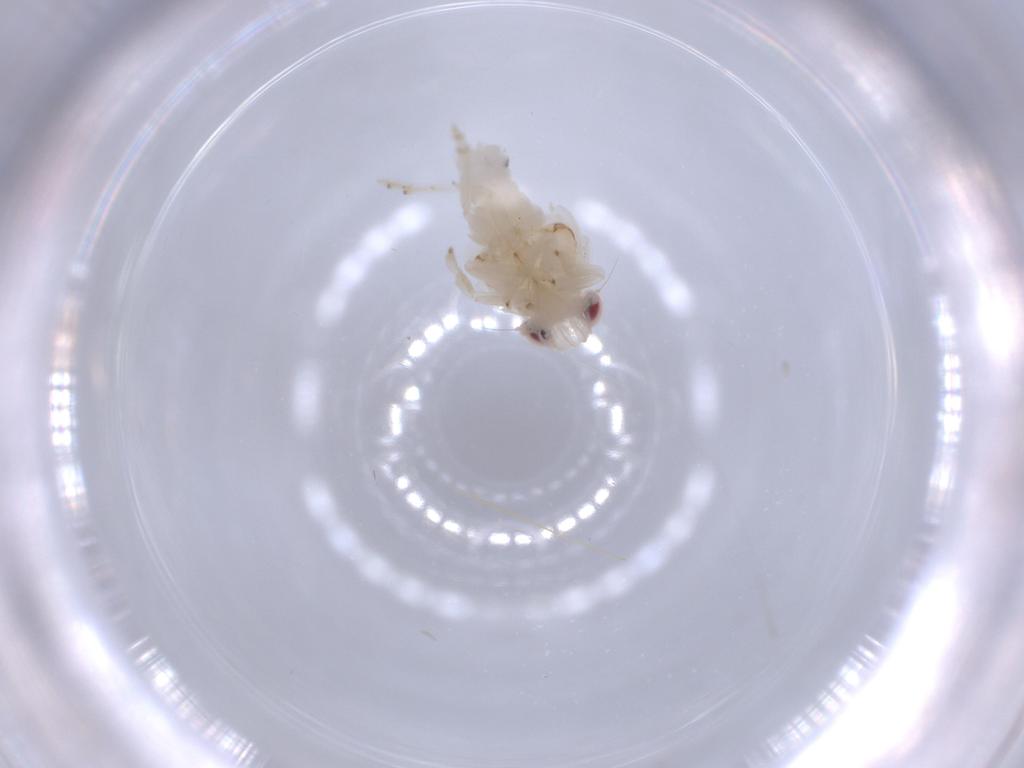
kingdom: Animalia
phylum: Arthropoda
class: Insecta
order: Hemiptera
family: Nogodinidae
